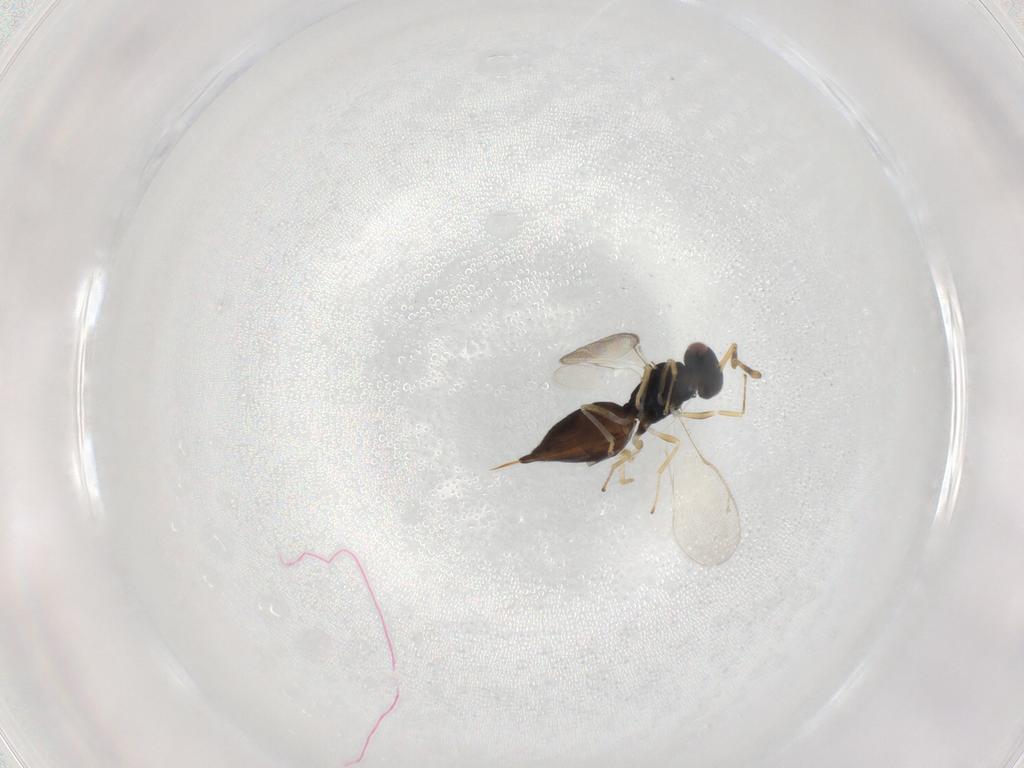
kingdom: Animalia
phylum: Arthropoda
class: Insecta
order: Hymenoptera
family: Pteromalidae
